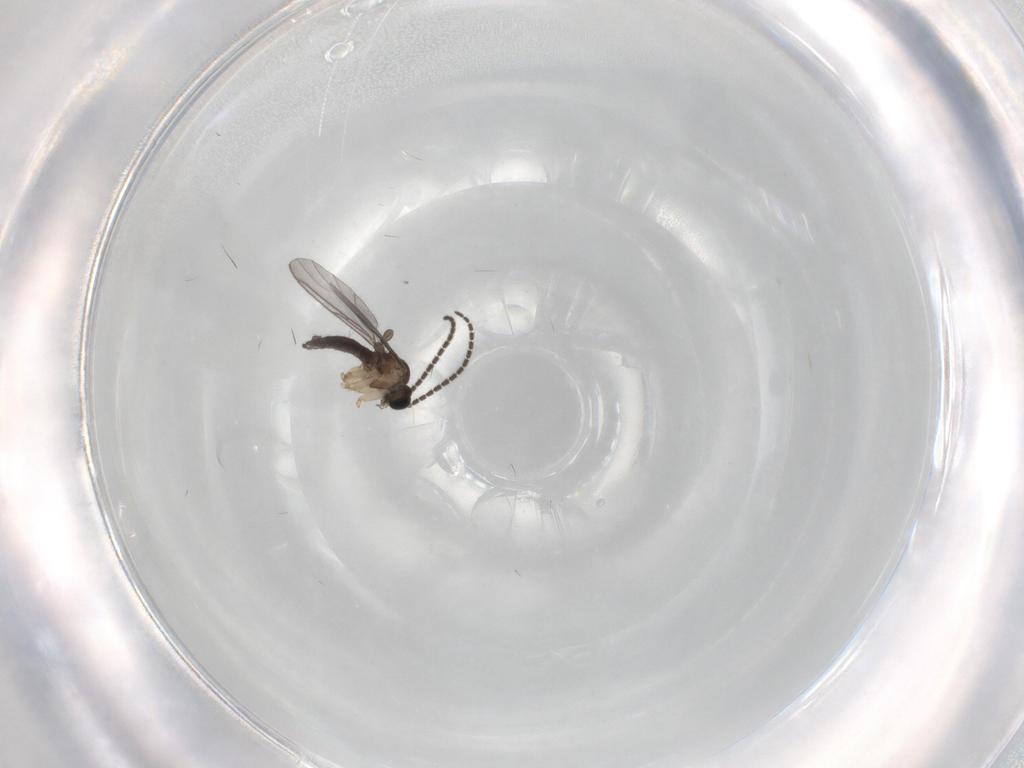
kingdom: Animalia
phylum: Arthropoda
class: Insecta
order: Diptera
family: Sciaridae
